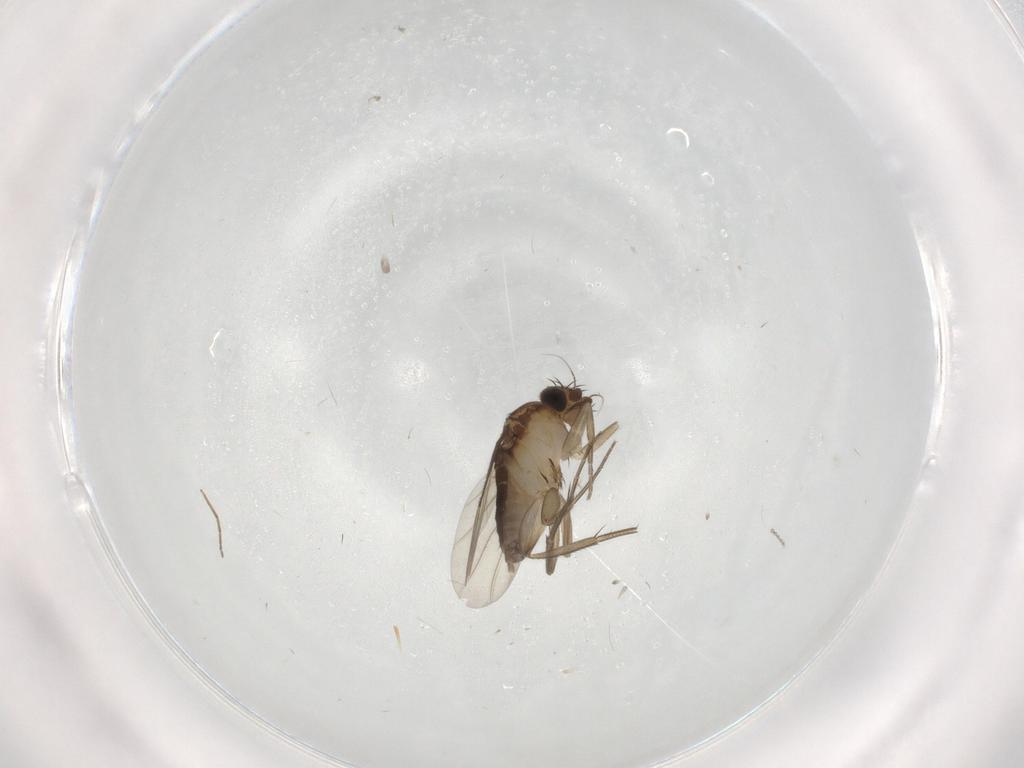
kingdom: Animalia
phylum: Arthropoda
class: Insecta
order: Diptera
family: Phoridae
